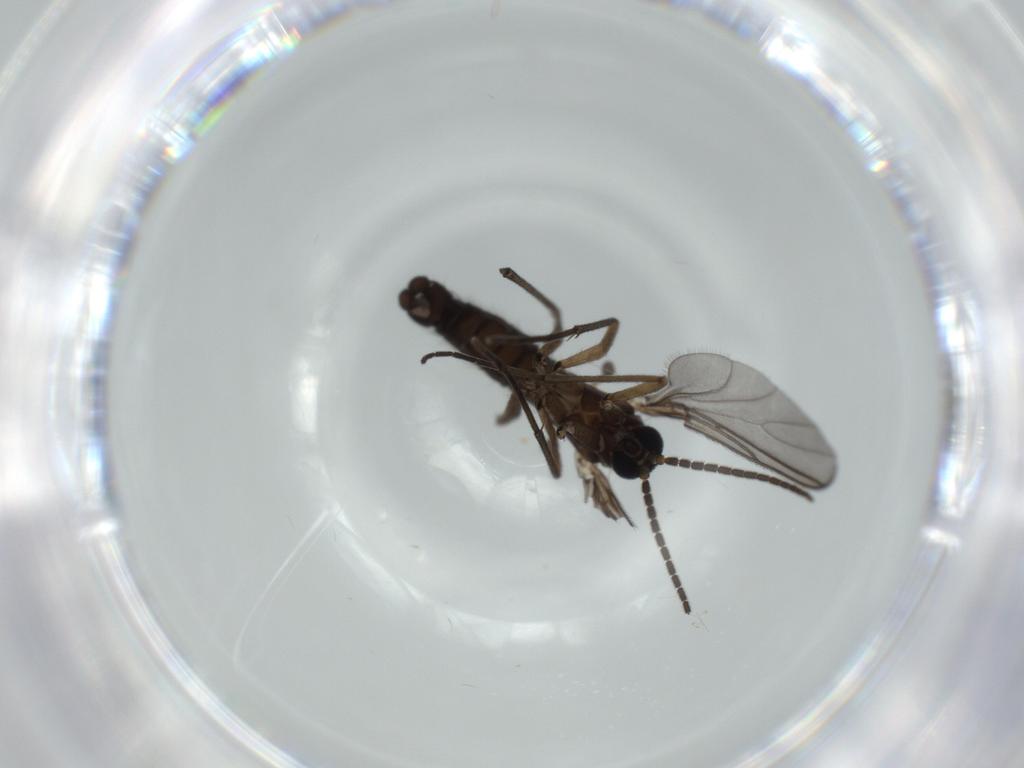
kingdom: Animalia
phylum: Arthropoda
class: Insecta
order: Diptera
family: Sciaridae
